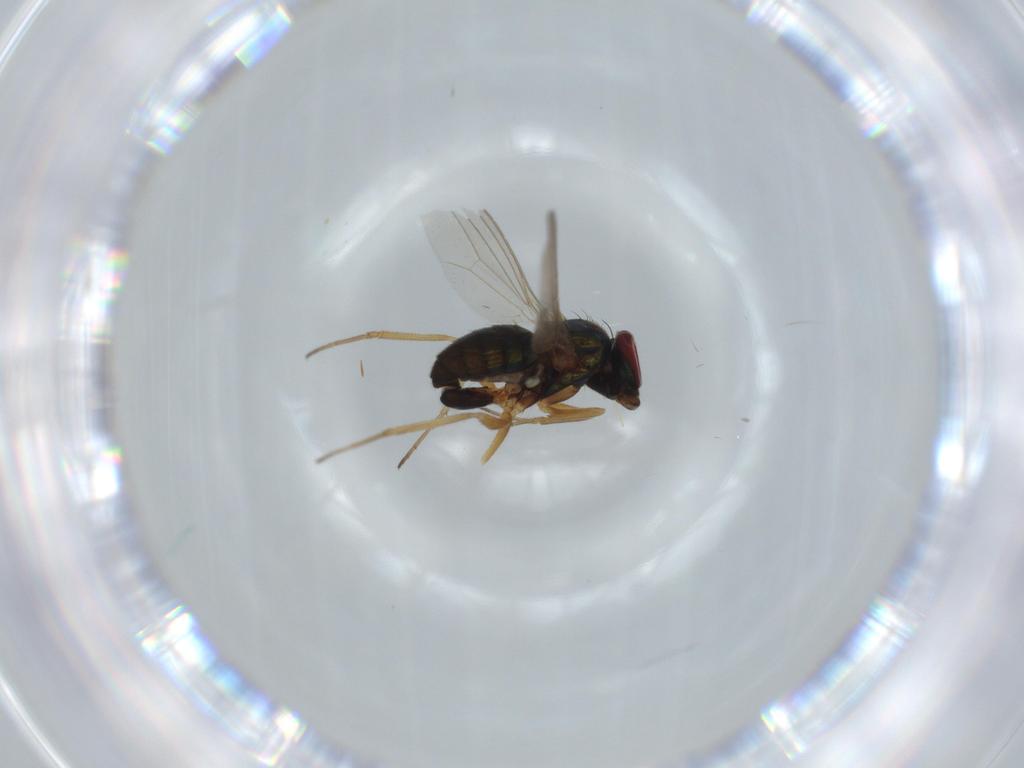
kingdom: Animalia
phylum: Arthropoda
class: Insecta
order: Diptera
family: Dolichopodidae
